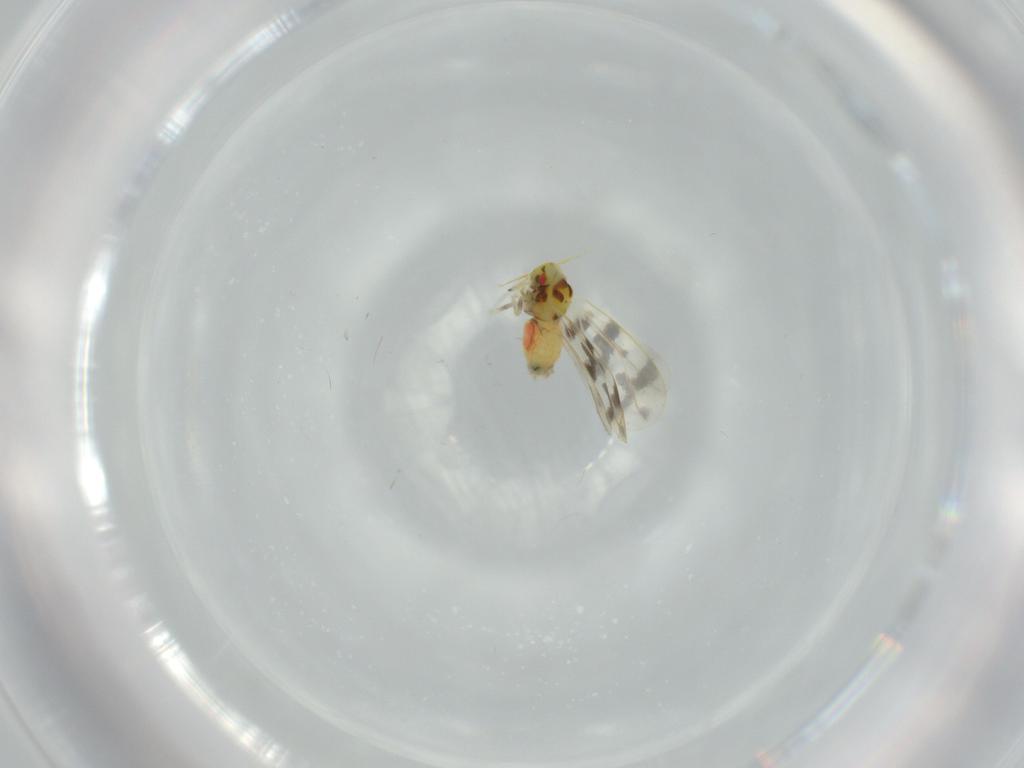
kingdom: Animalia
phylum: Arthropoda
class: Insecta
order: Hemiptera
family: Aleyrodidae
